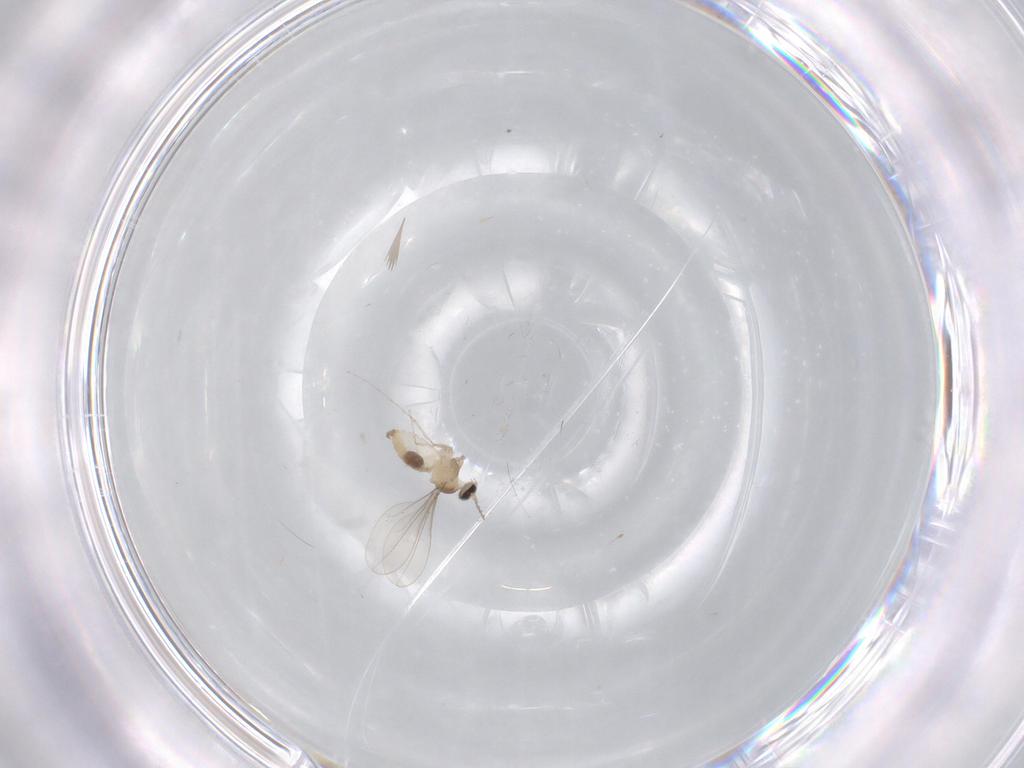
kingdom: Animalia
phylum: Arthropoda
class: Insecta
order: Diptera
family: Cecidomyiidae
